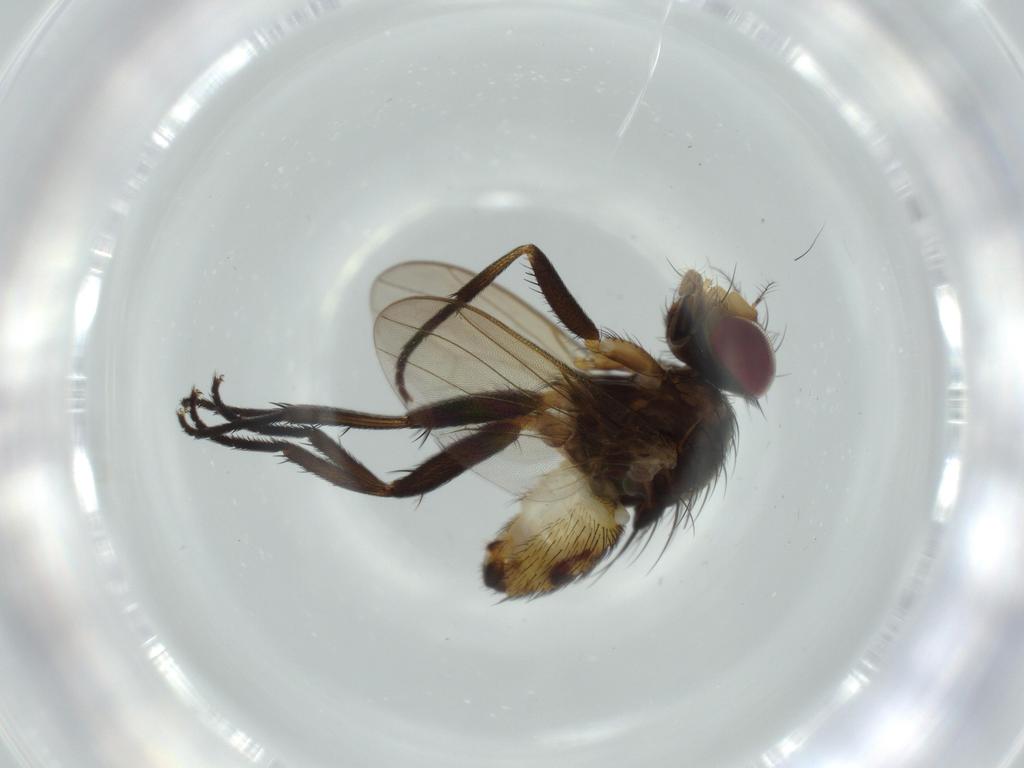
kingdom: Animalia
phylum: Arthropoda
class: Insecta
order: Diptera
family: Anthomyiidae
